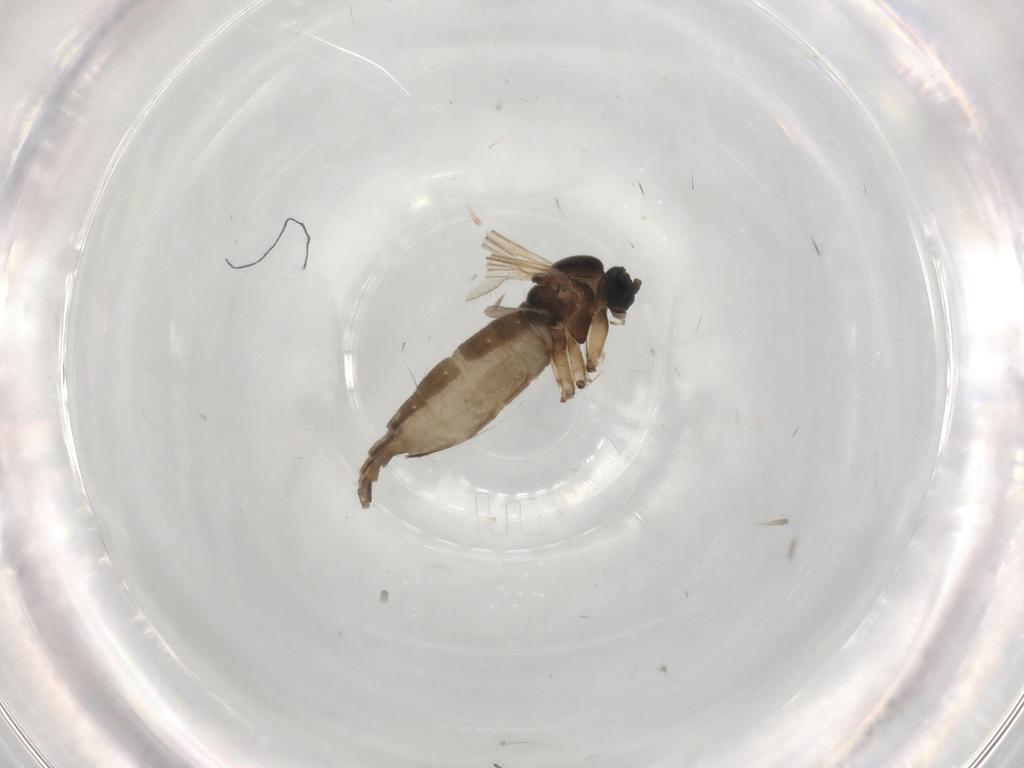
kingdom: Animalia
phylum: Arthropoda
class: Insecta
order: Diptera
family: Sciaridae
